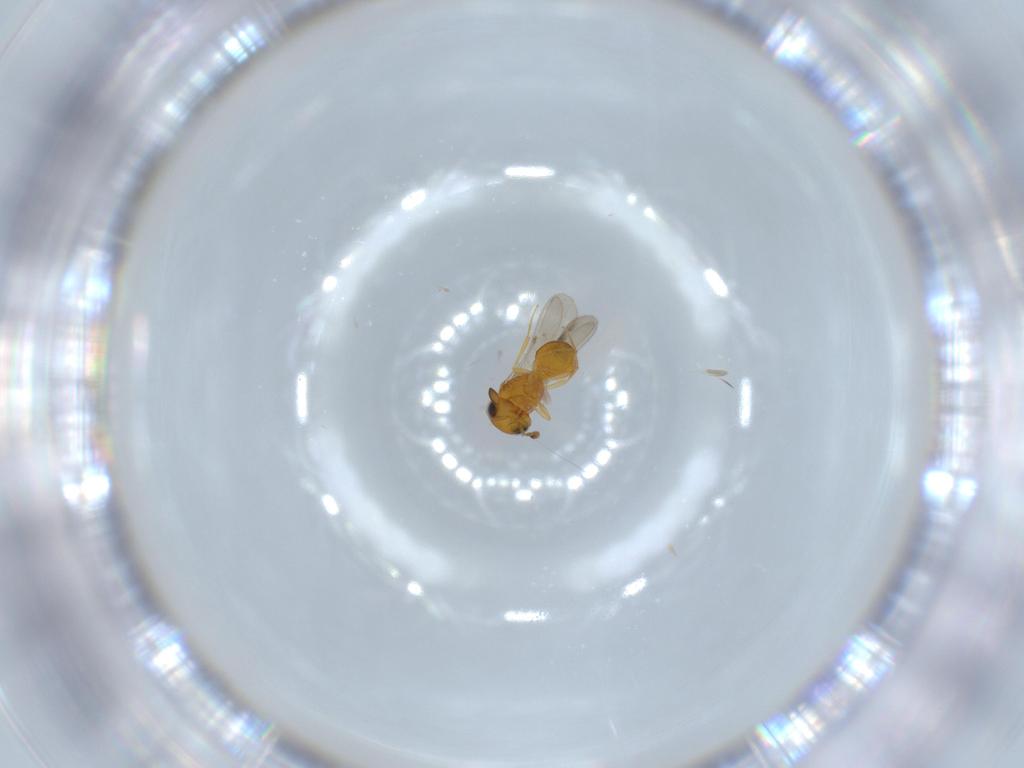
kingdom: Animalia
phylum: Arthropoda
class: Insecta
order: Hymenoptera
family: Scelionidae
